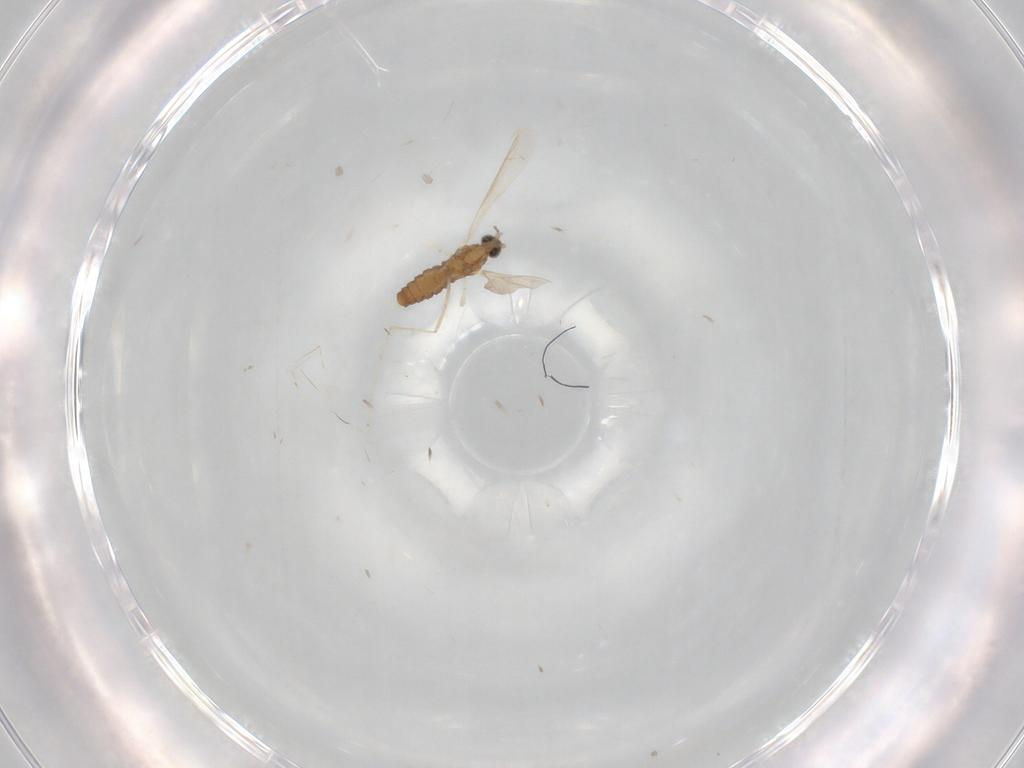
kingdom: Animalia
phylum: Arthropoda
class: Insecta
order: Diptera
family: Cecidomyiidae
